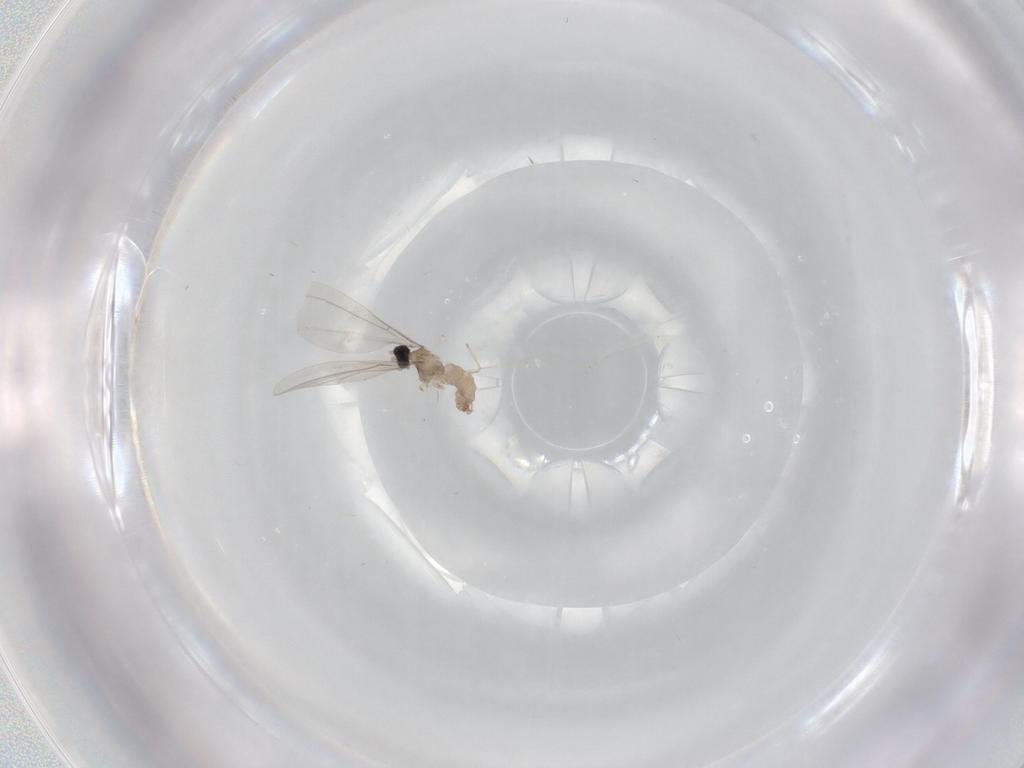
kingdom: Animalia
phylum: Arthropoda
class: Insecta
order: Diptera
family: Sciaridae
